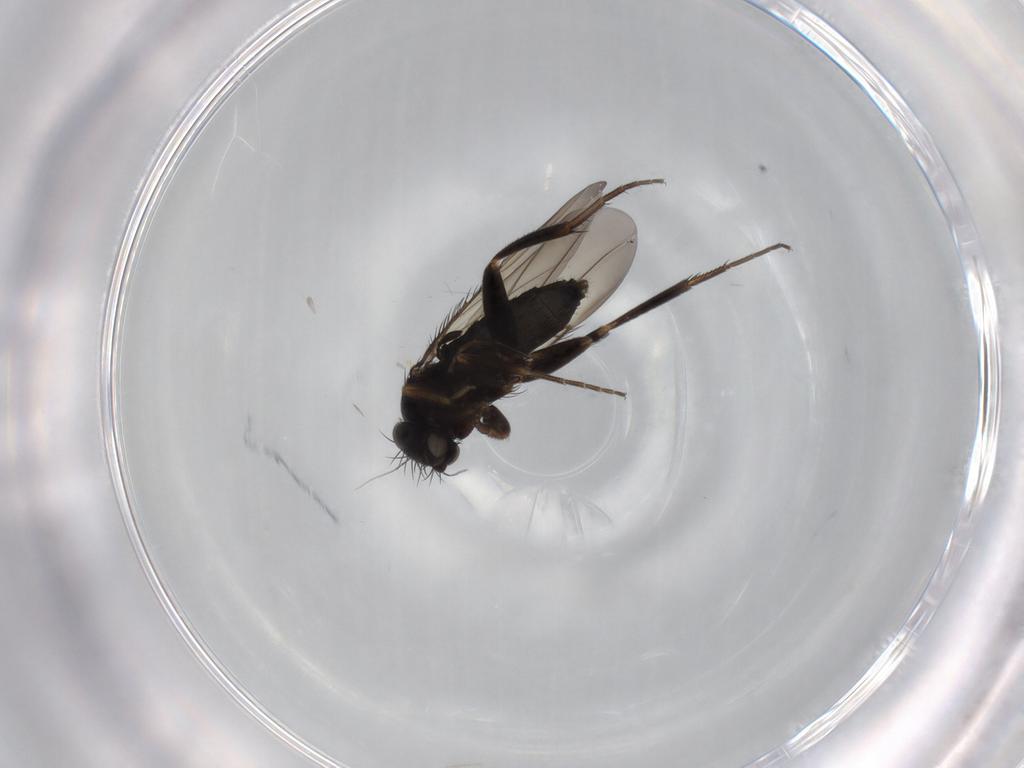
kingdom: Animalia
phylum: Arthropoda
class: Insecta
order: Diptera
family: Phoridae
